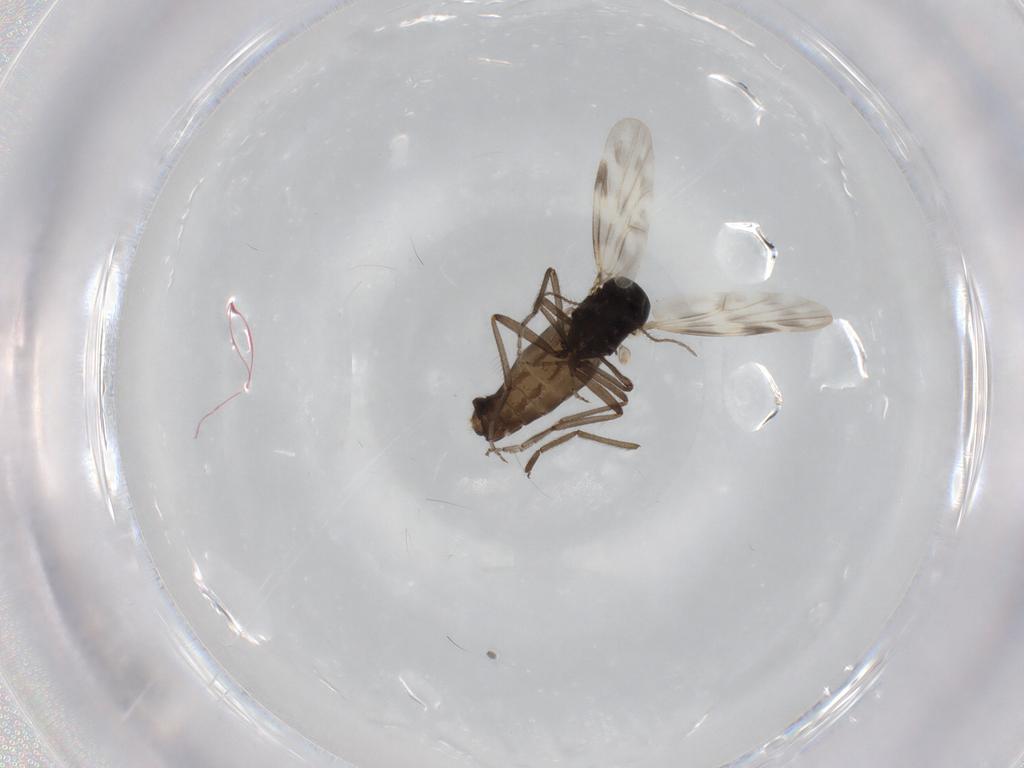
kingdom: Animalia
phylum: Arthropoda
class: Insecta
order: Diptera
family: Ceratopogonidae
